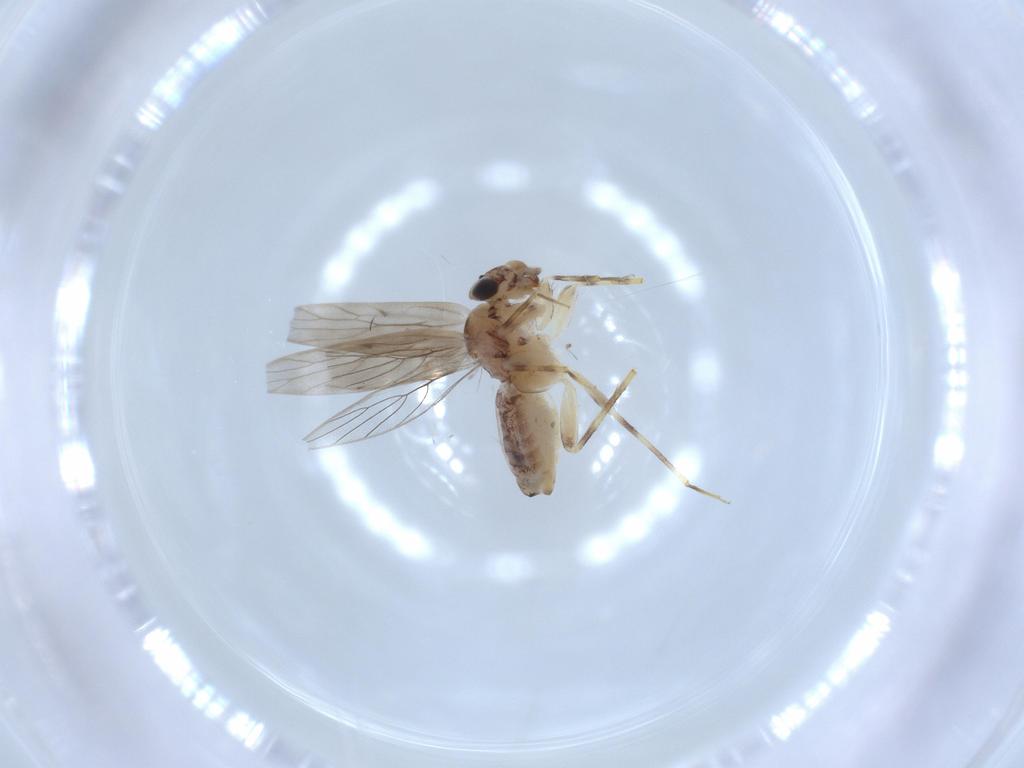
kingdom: Animalia
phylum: Arthropoda
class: Insecta
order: Psocodea
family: Lepidopsocidae
